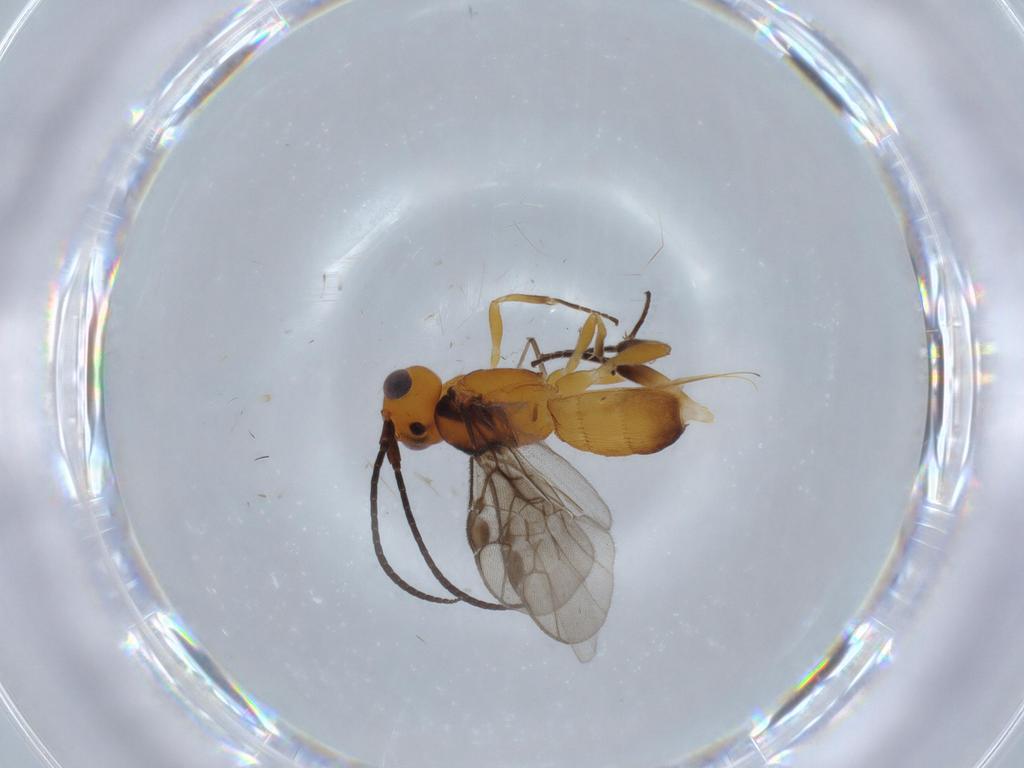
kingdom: Animalia
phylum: Arthropoda
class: Insecta
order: Hymenoptera
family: Braconidae
